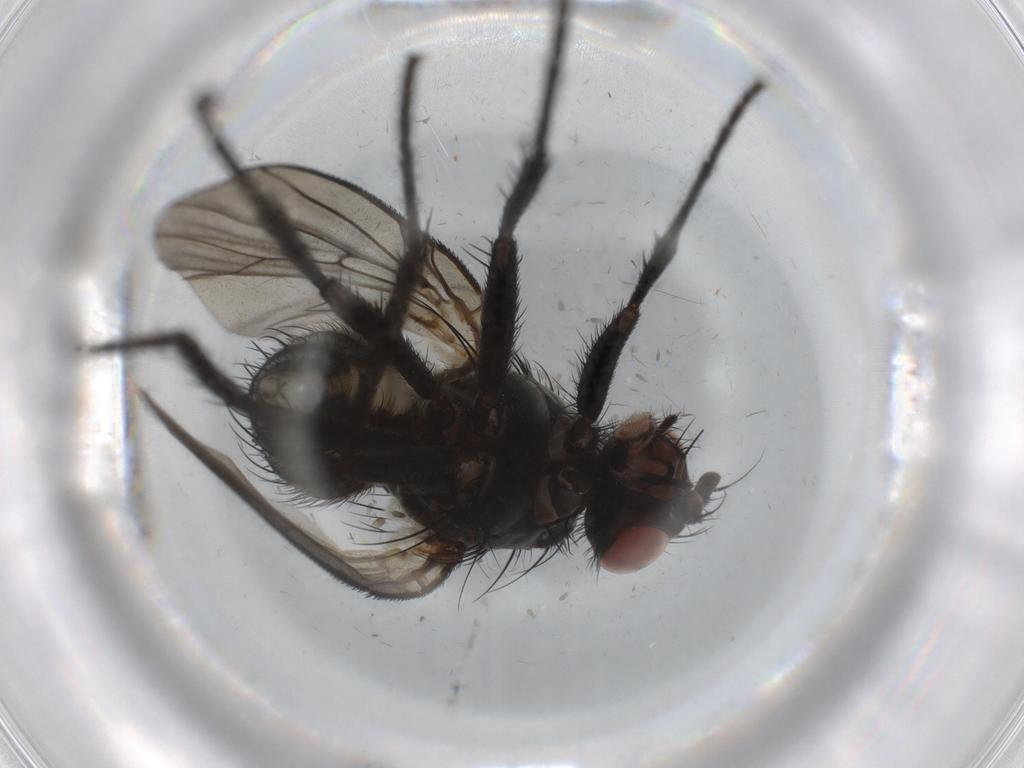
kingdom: Animalia
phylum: Arthropoda
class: Insecta
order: Diptera
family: Anthomyiidae
